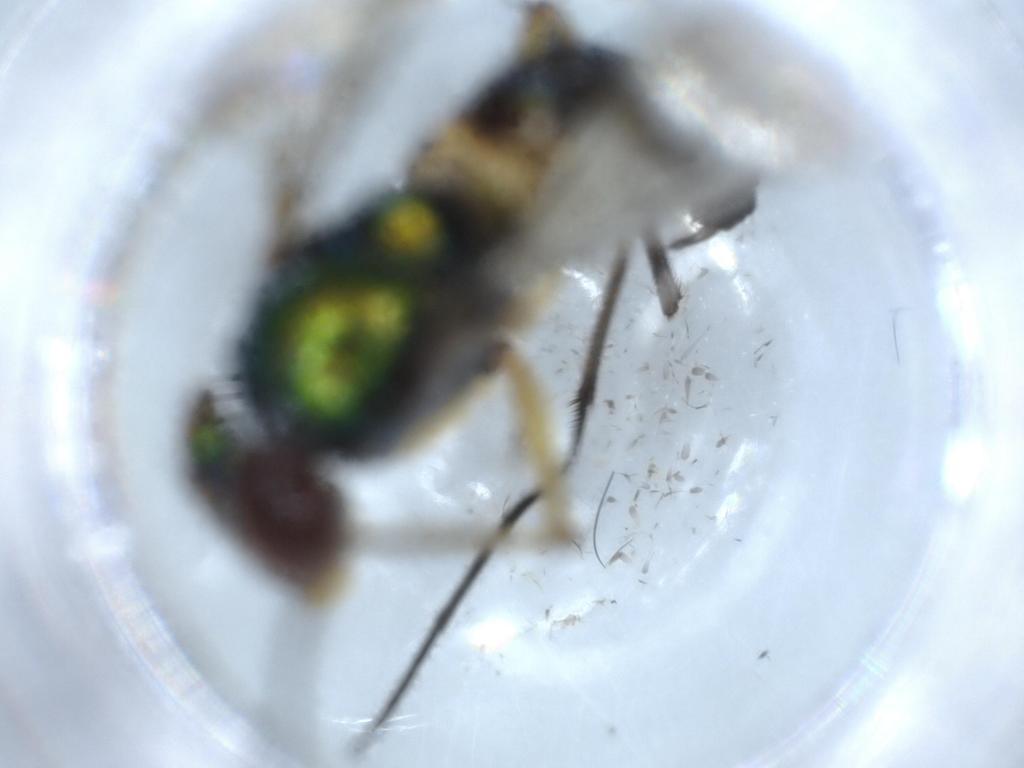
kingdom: Animalia
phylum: Arthropoda
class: Insecta
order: Diptera
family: Dolichopodidae
